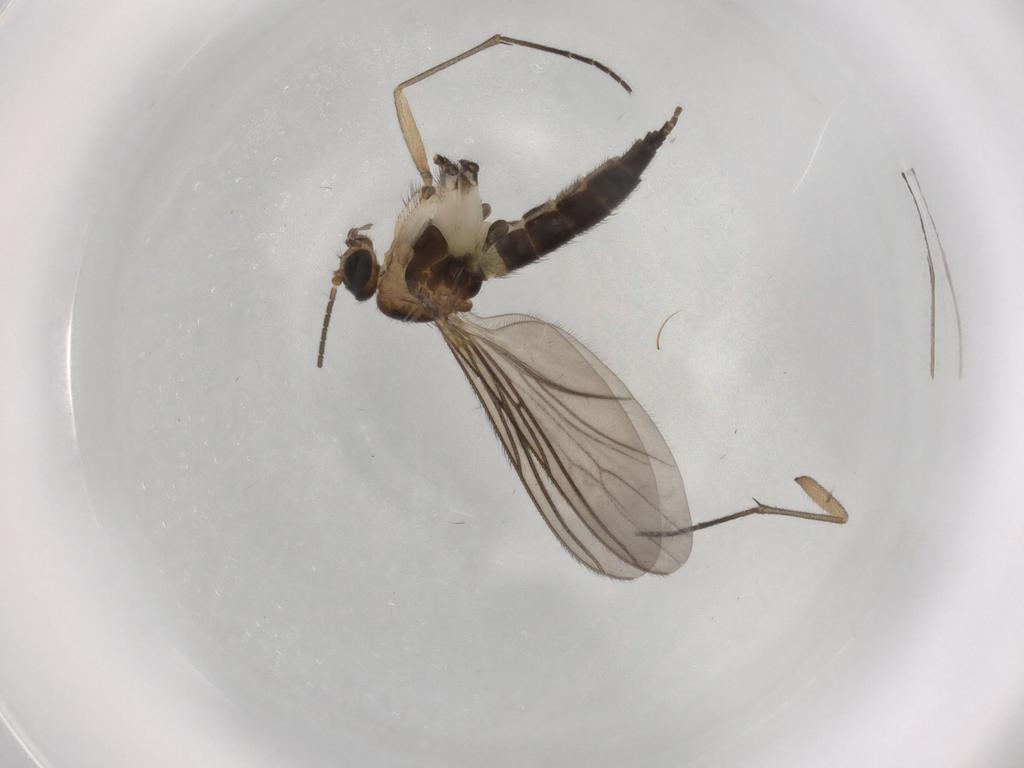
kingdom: Animalia
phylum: Arthropoda
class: Insecta
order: Diptera
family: Sciaridae
